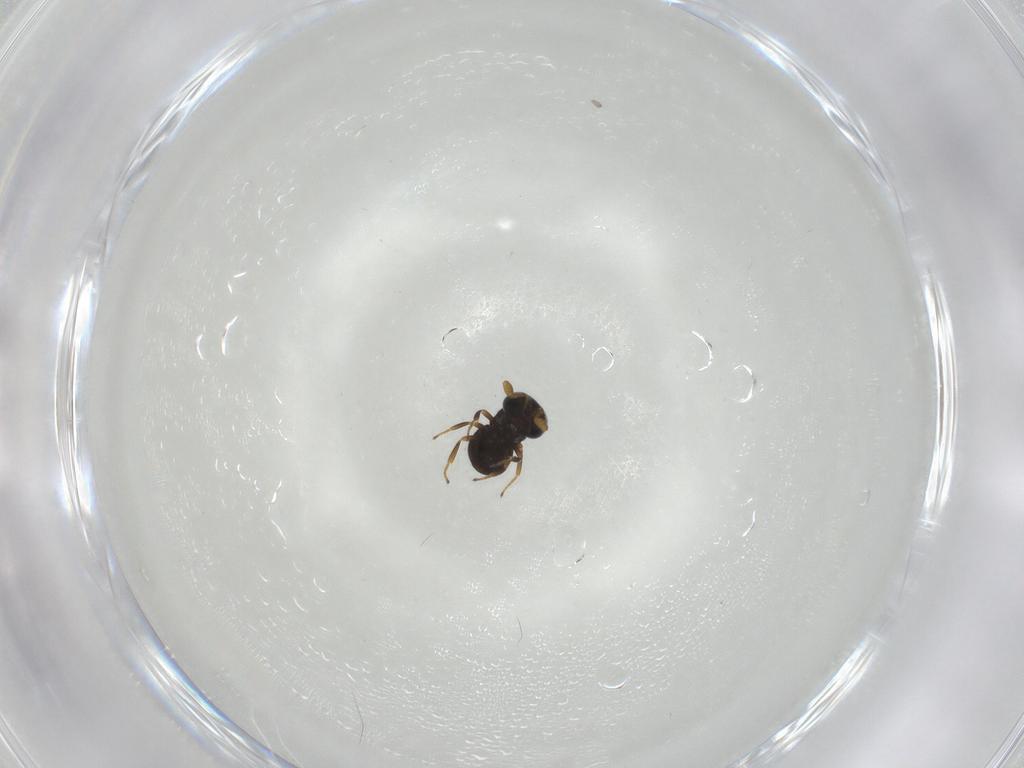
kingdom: Animalia
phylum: Arthropoda
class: Insecta
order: Hymenoptera
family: Scelionidae
